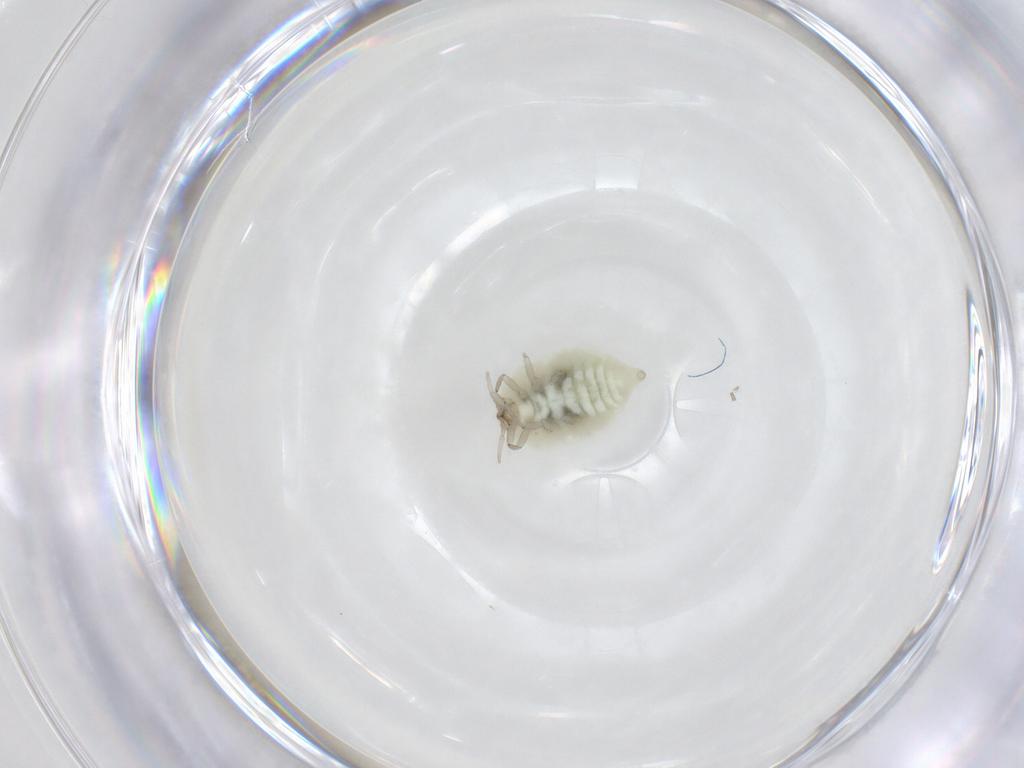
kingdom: Animalia
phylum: Arthropoda
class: Insecta
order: Neuroptera
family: Coniopterygidae
